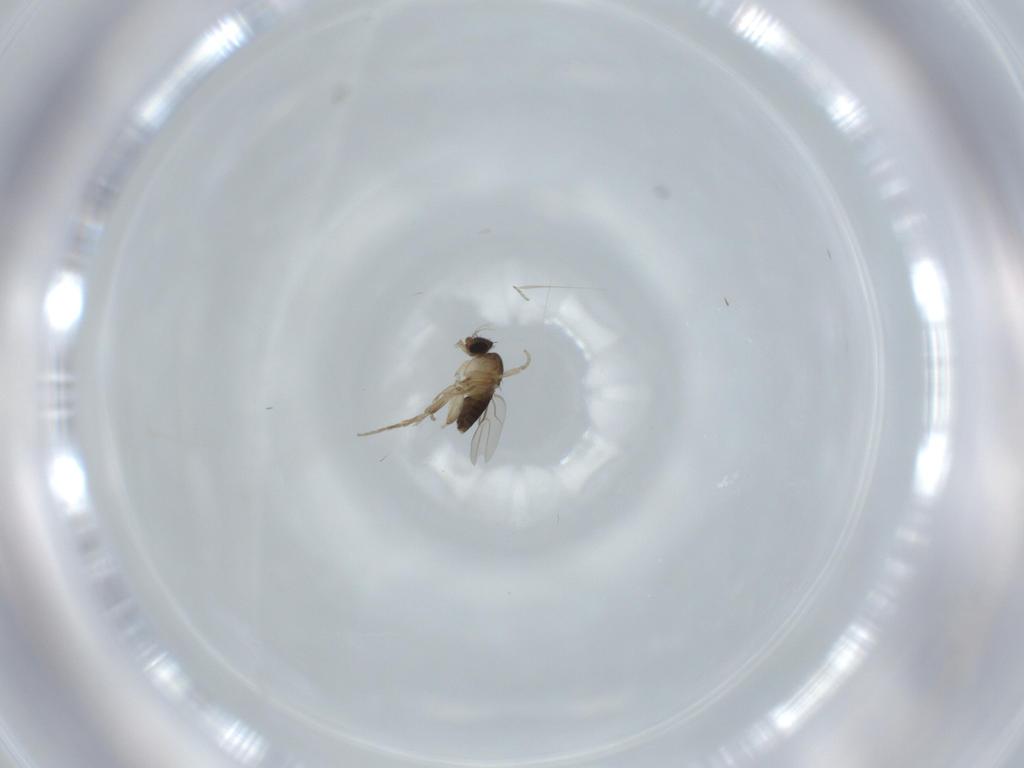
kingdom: Animalia
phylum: Arthropoda
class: Insecta
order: Diptera
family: Phoridae
